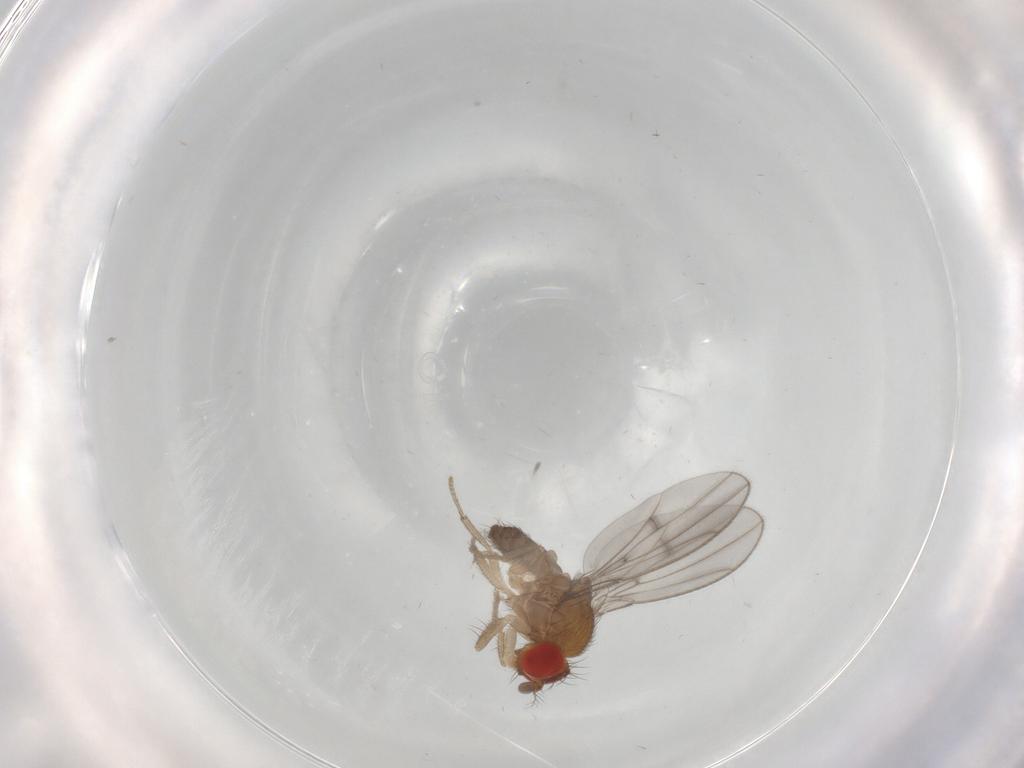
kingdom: Animalia
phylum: Arthropoda
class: Insecta
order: Diptera
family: Drosophilidae
